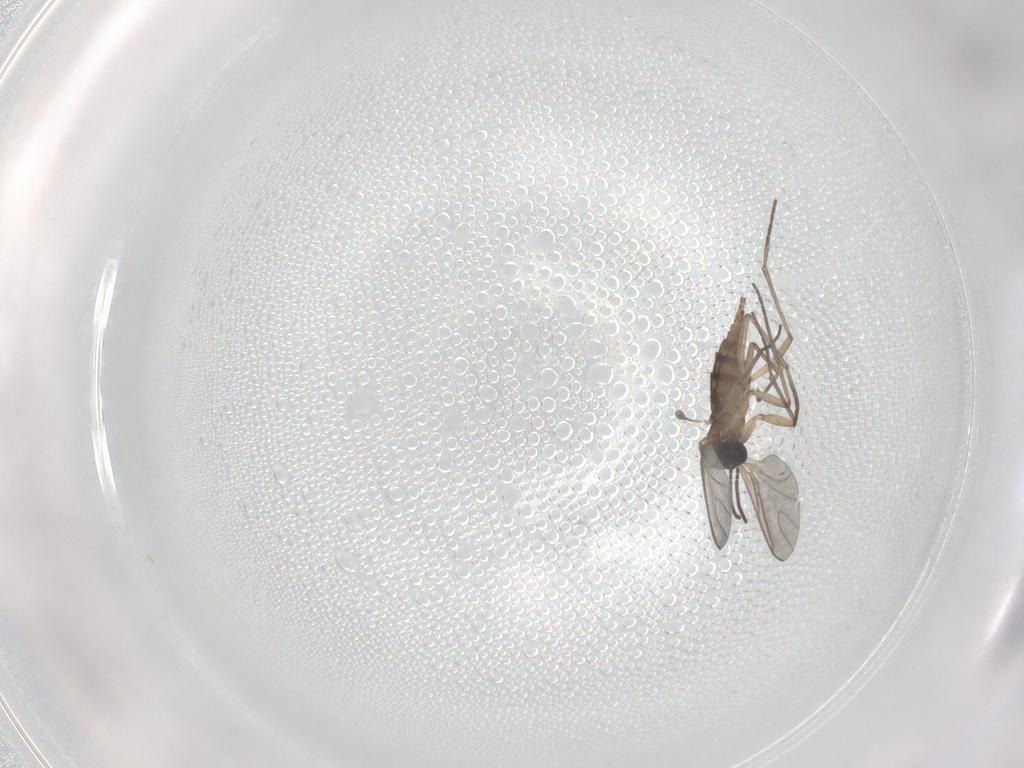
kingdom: Animalia
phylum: Arthropoda
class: Insecta
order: Diptera
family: Sciaridae
